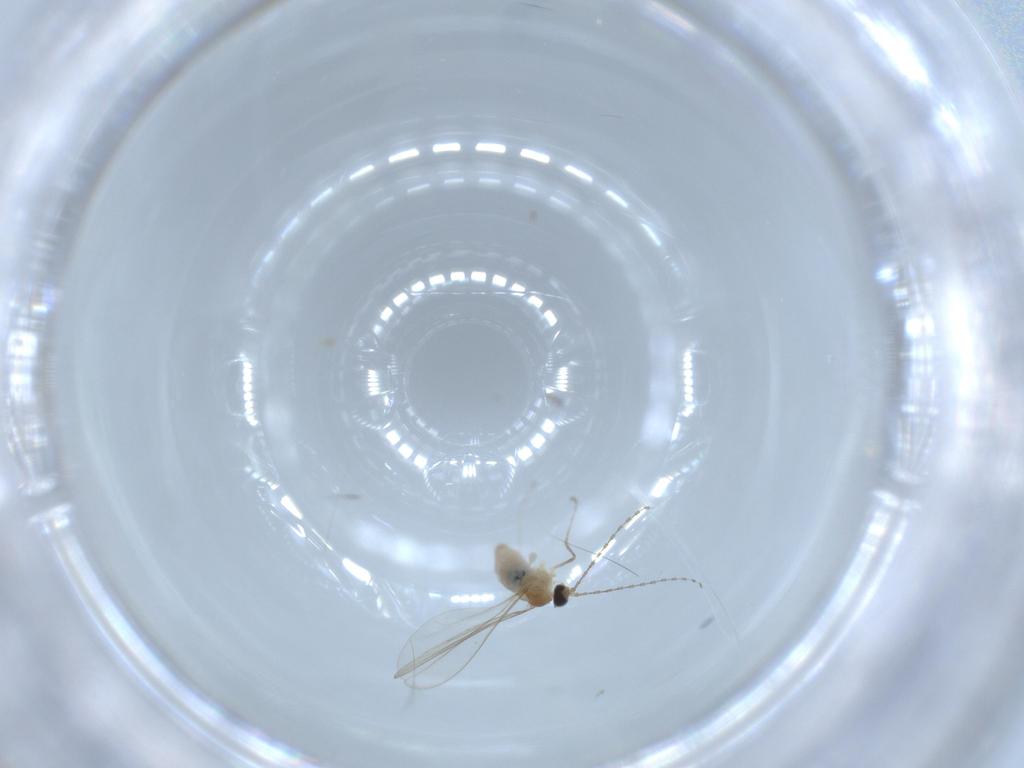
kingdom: Animalia
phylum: Arthropoda
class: Insecta
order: Diptera
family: Chironomidae
